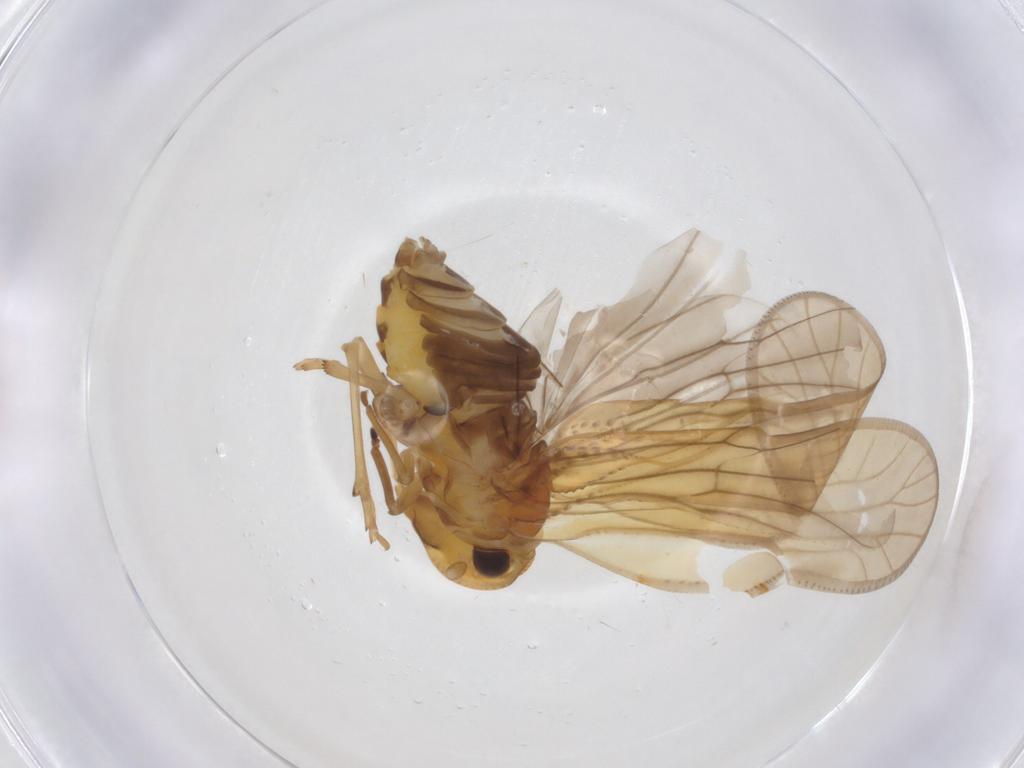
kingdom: Animalia
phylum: Arthropoda
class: Insecta
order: Hemiptera
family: Meenoplidae
